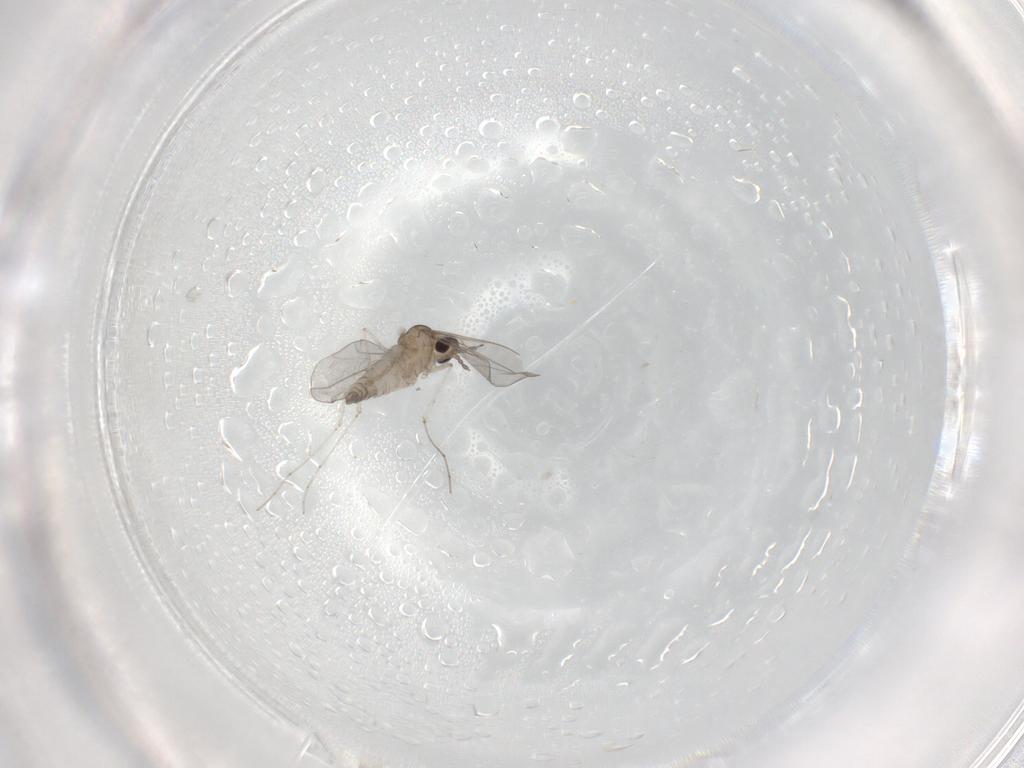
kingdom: Animalia
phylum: Arthropoda
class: Insecta
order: Diptera
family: Cecidomyiidae
